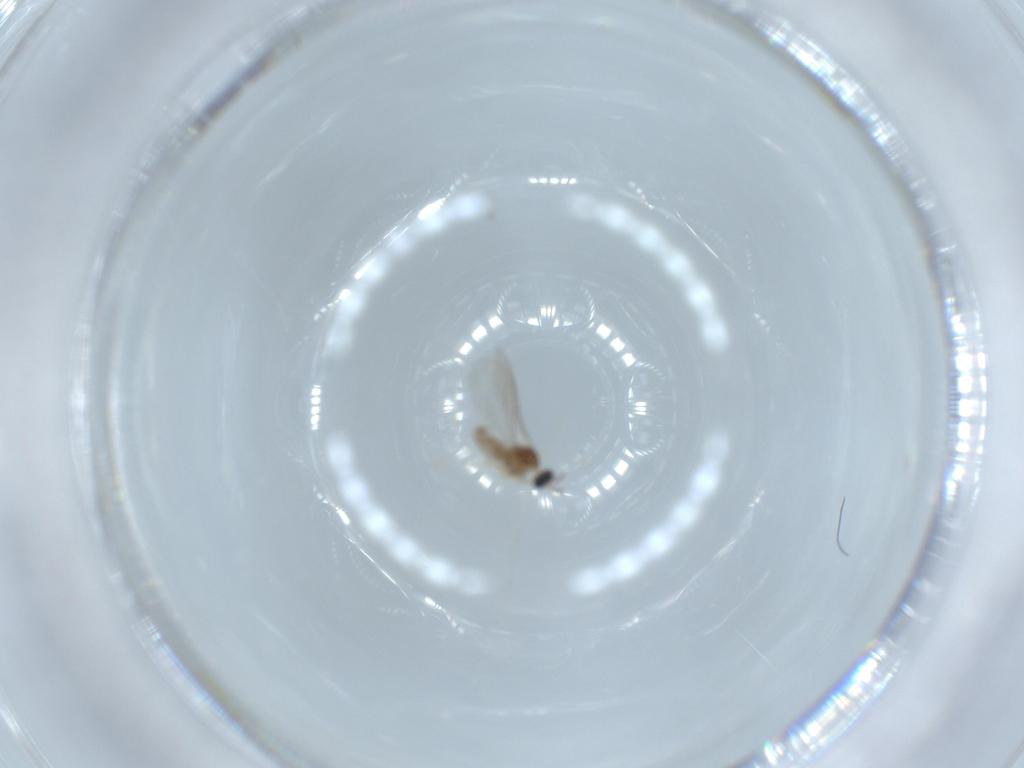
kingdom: Animalia
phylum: Arthropoda
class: Insecta
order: Diptera
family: Cecidomyiidae
